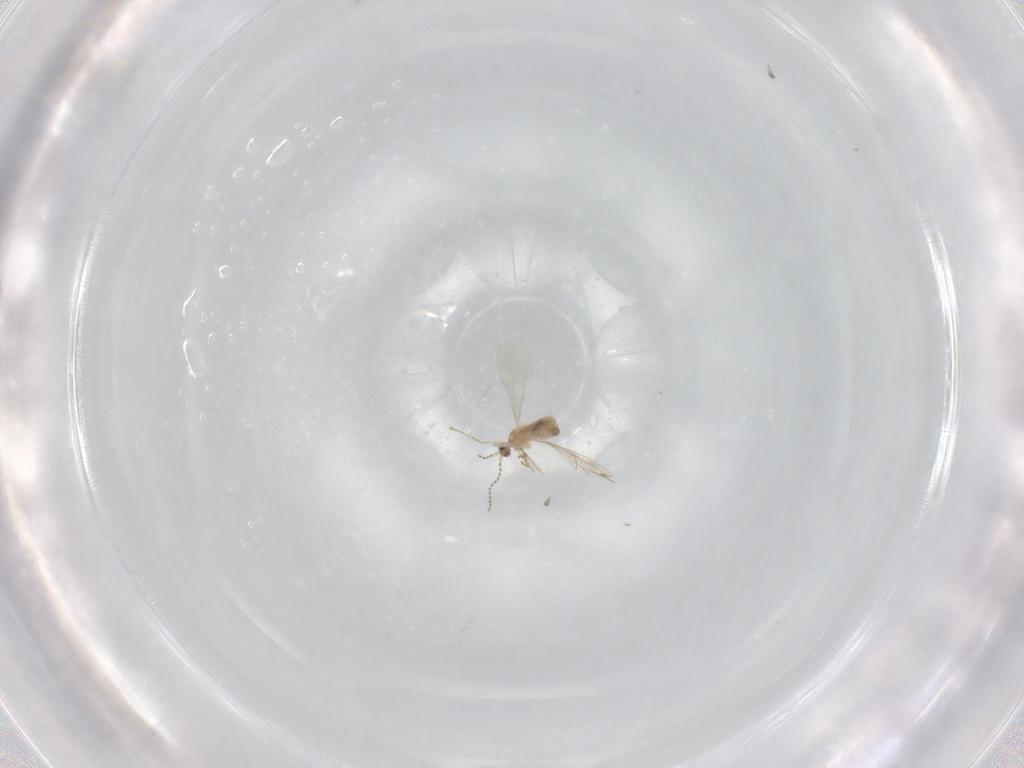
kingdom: Animalia
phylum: Arthropoda
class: Insecta
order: Diptera
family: Cecidomyiidae
